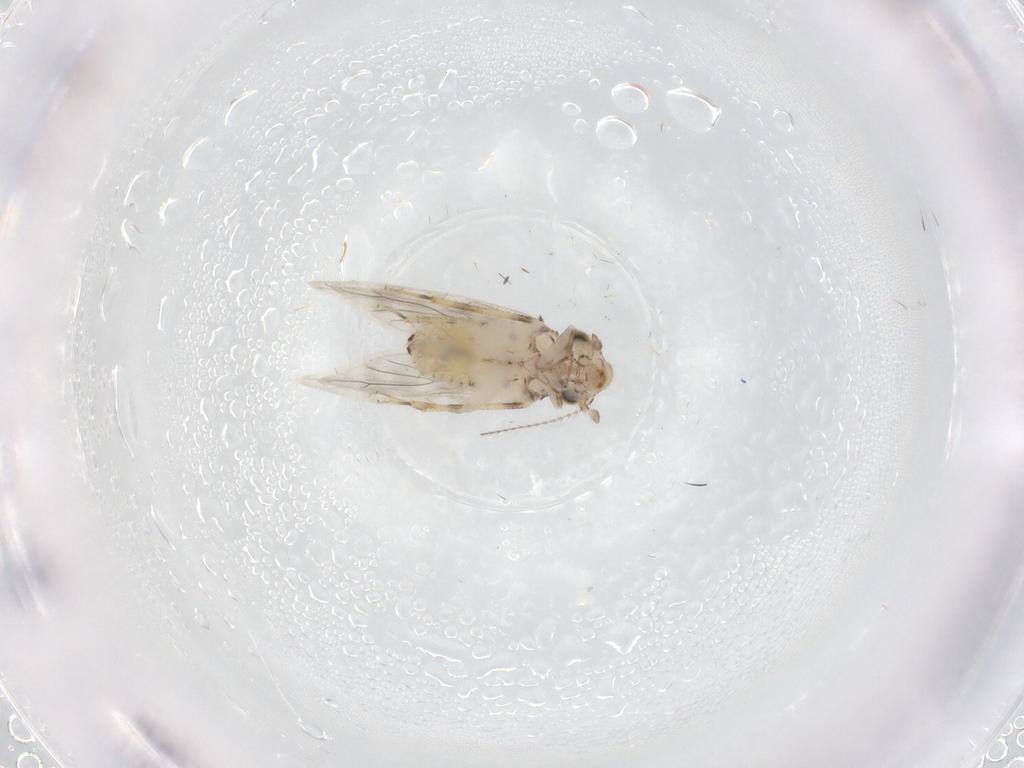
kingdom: Animalia
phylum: Arthropoda
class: Insecta
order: Psocodea
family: Lepidopsocidae
